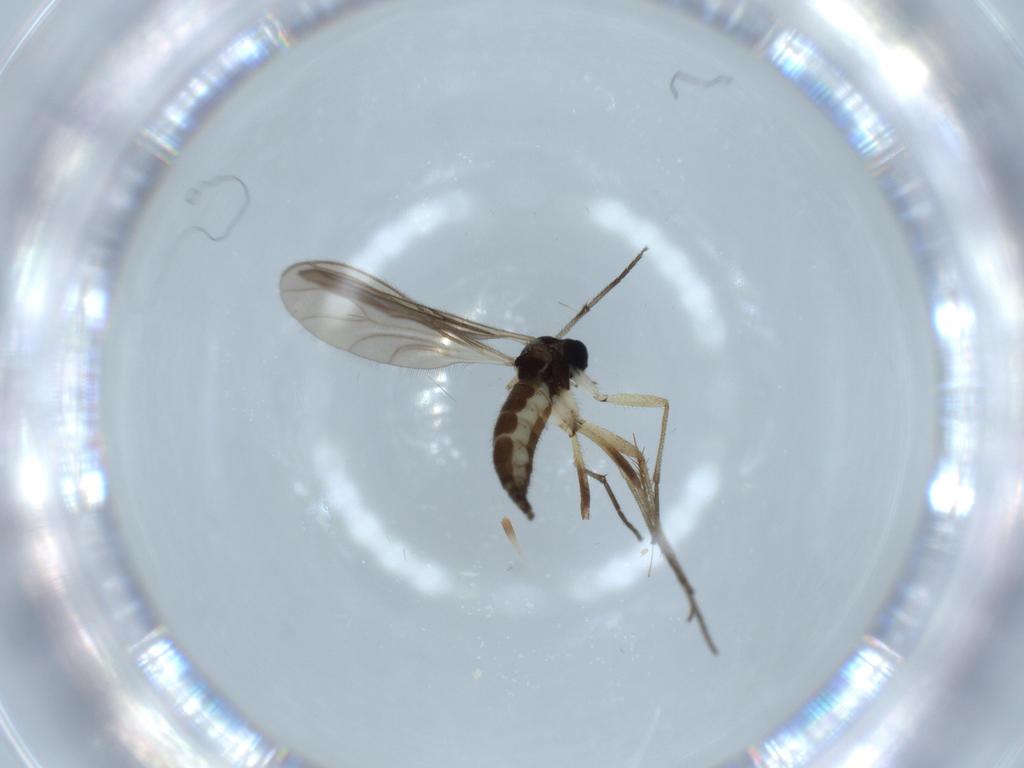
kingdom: Animalia
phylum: Arthropoda
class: Insecta
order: Diptera
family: Sciaridae
